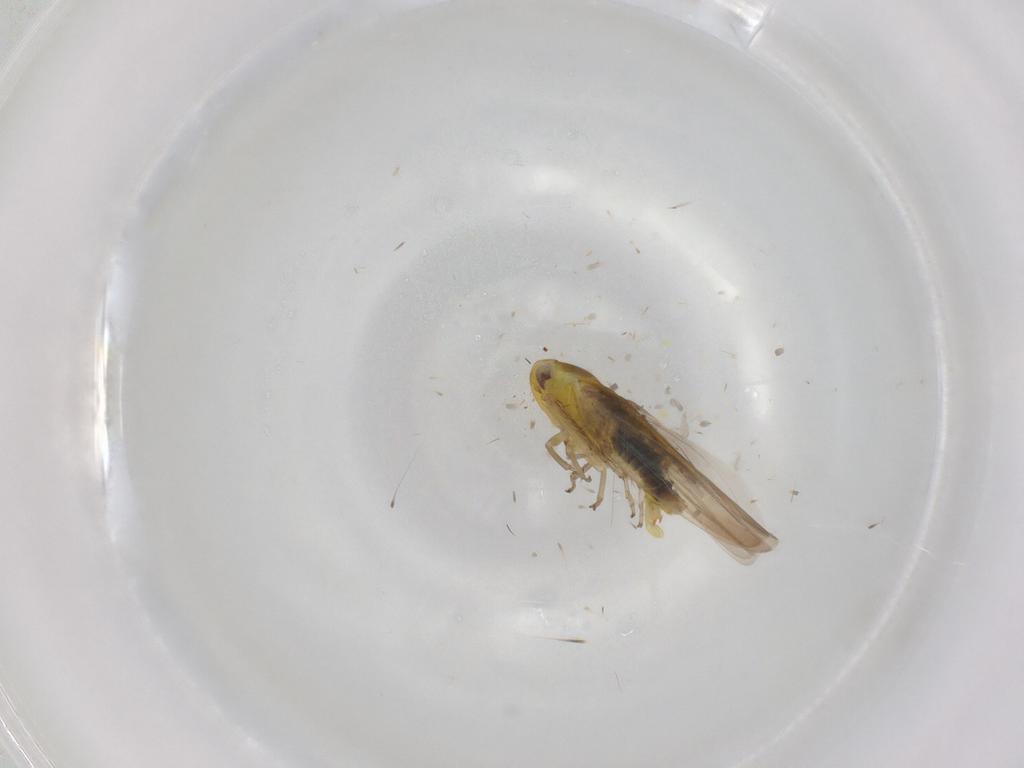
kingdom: Animalia
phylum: Arthropoda
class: Insecta
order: Hemiptera
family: Cicadellidae
